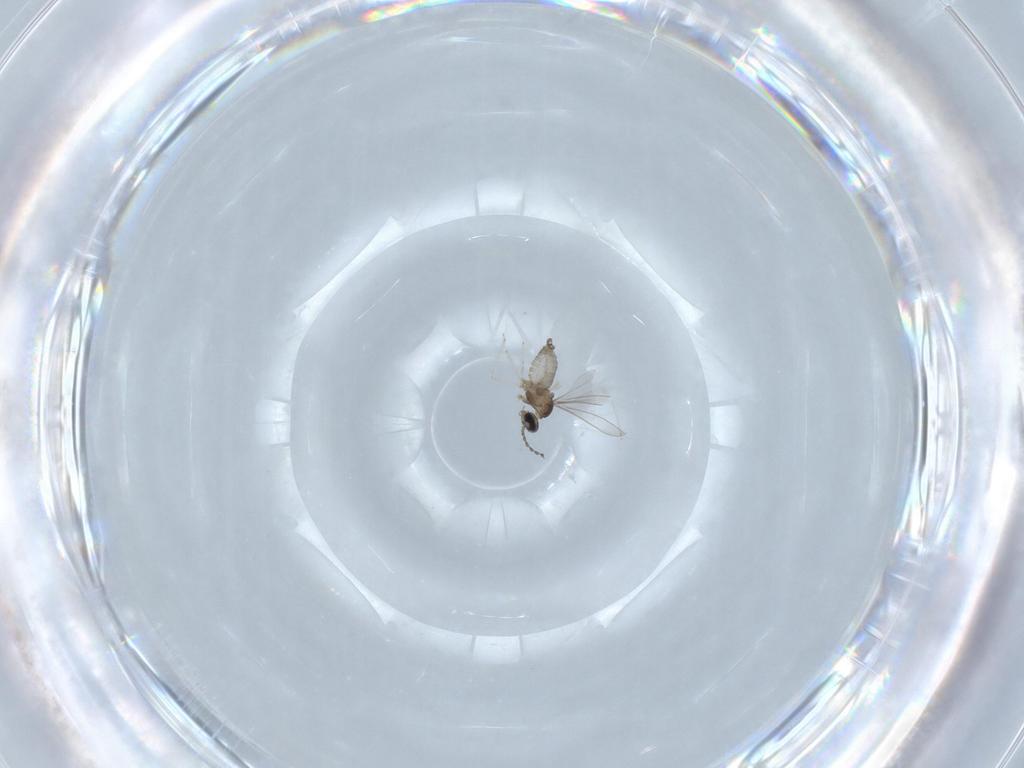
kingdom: Animalia
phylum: Arthropoda
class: Insecta
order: Diptera
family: Cecidomyiidae
